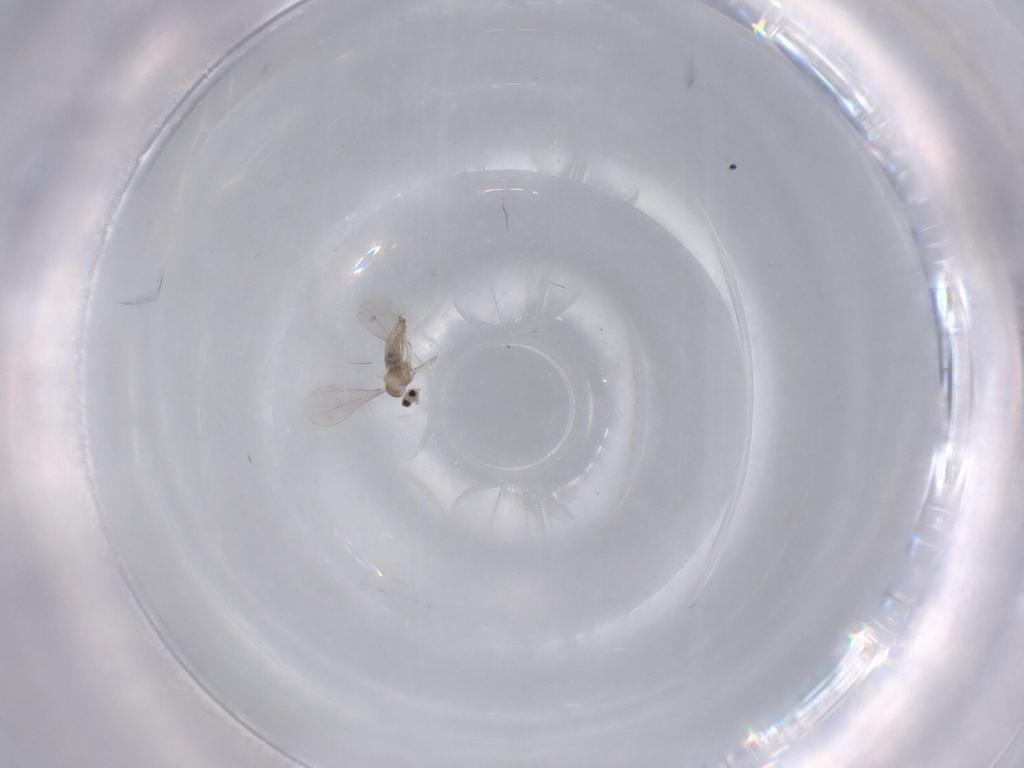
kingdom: Animalia
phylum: Arthropoda
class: Insecta
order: Diptera
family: Cecidomyiidae
